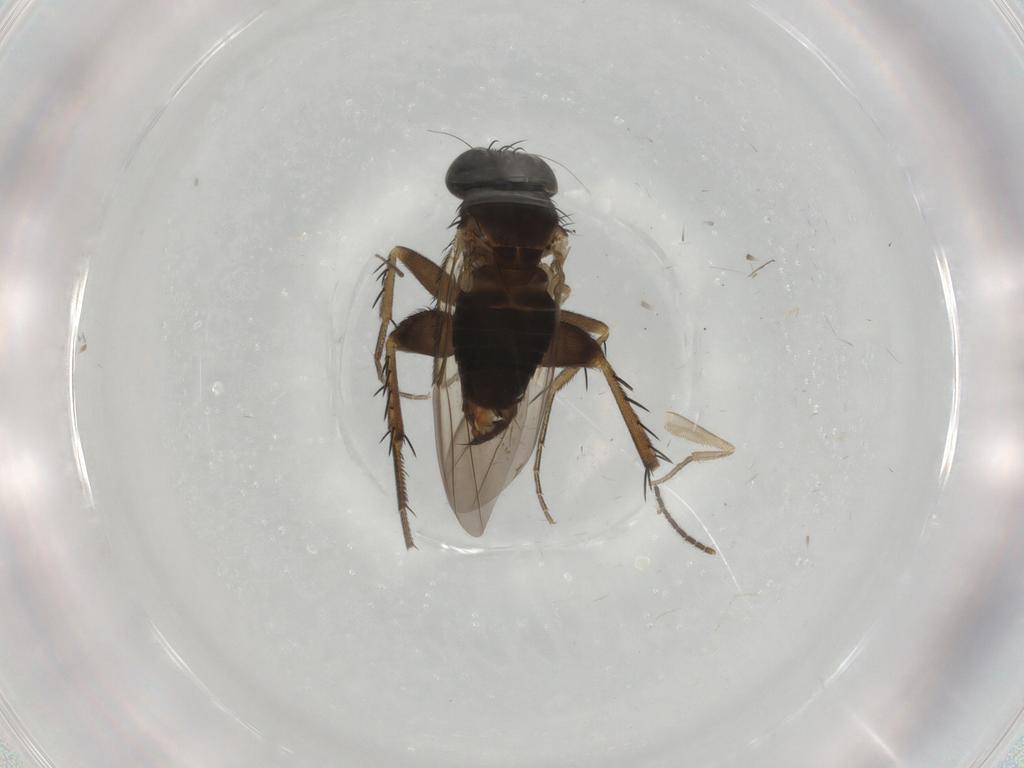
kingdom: Animalia
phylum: Arthropoda
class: Insecta
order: Diptera
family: Phoridae
